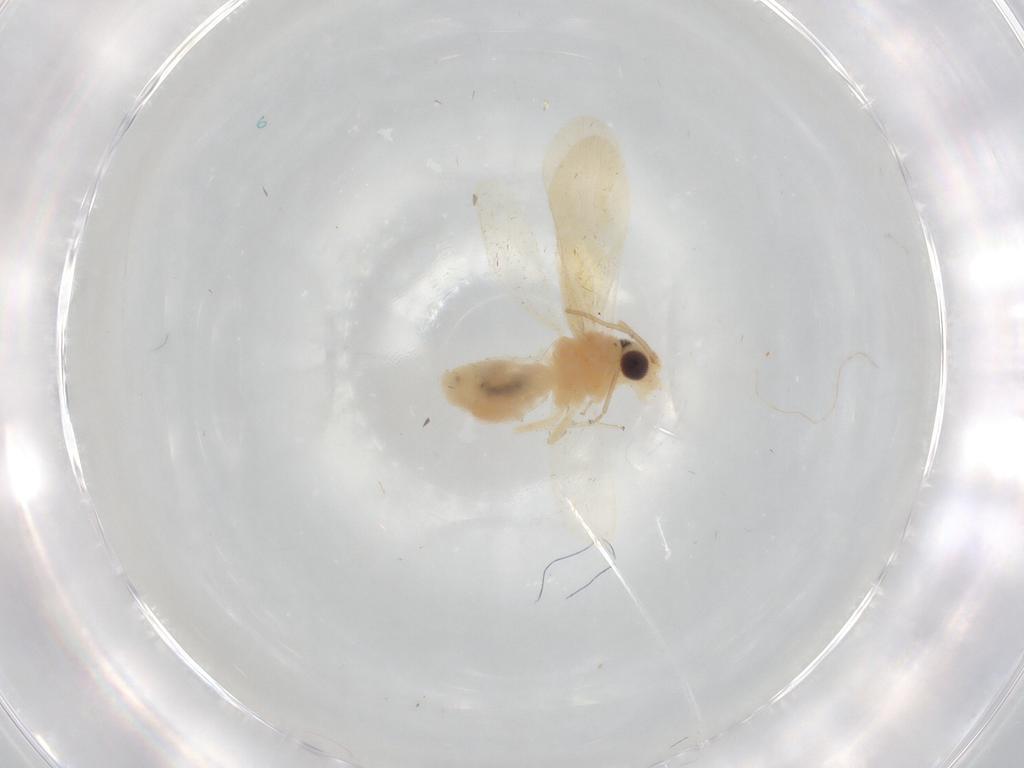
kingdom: Animalia
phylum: Arthropoda
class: Insecta
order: Psocodea
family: Caeciliusidae
